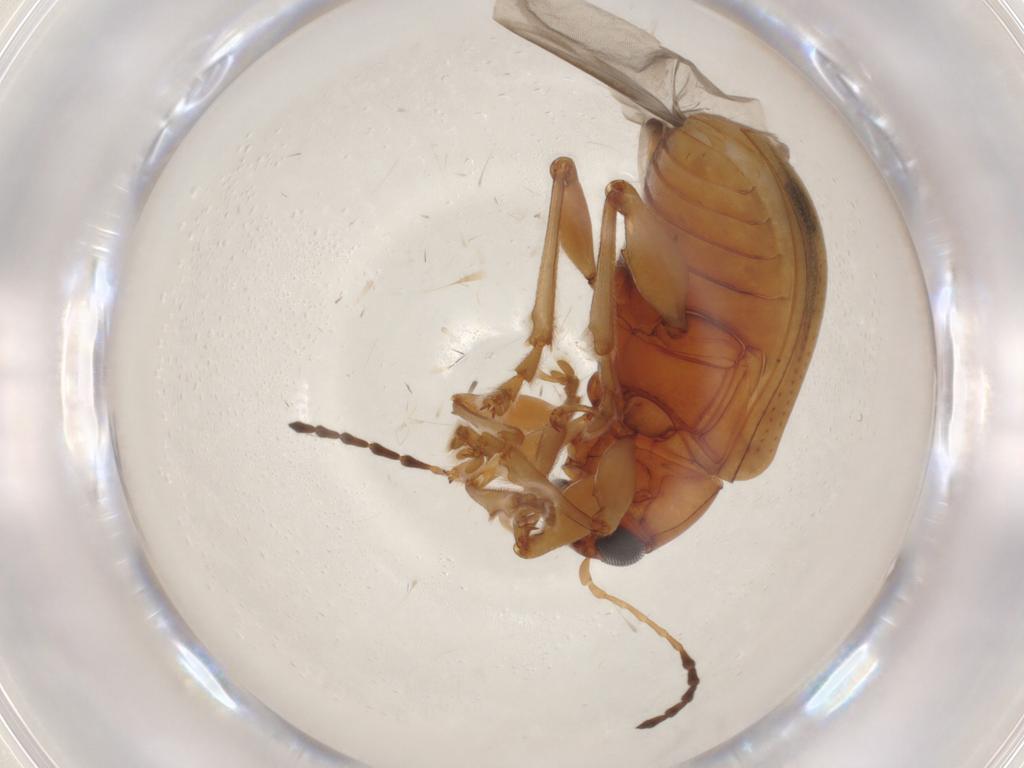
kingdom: Animalia
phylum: Arthropoda
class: Insecta
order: Coleoptera
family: Chrysomelidae
